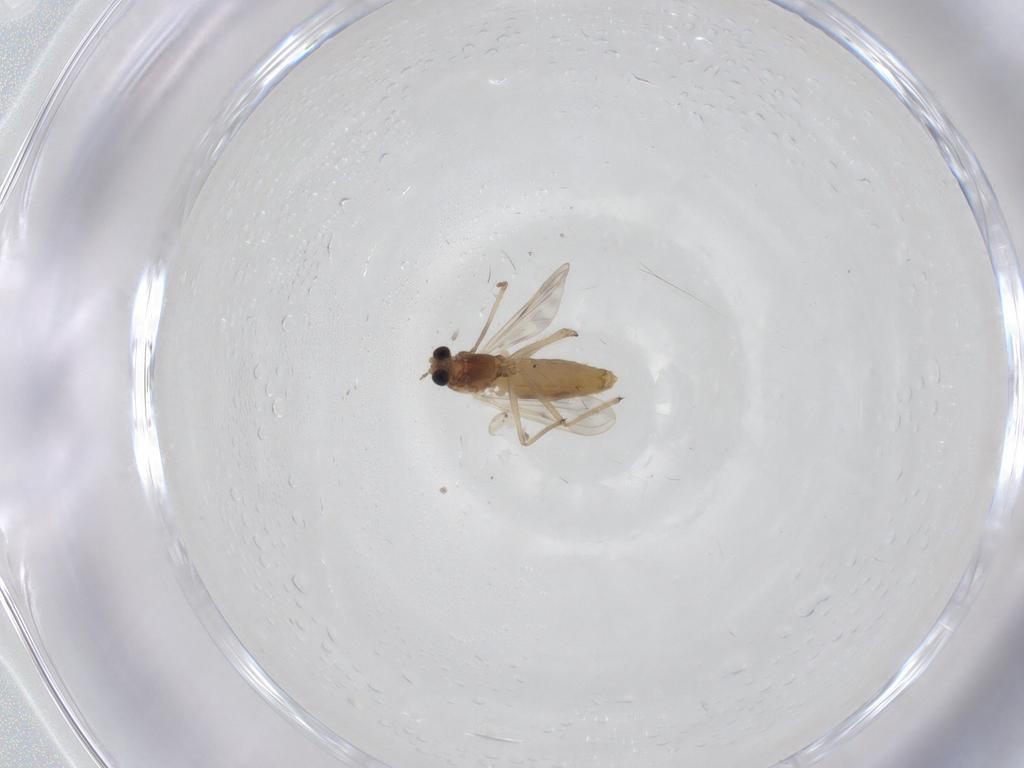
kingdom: Animalia
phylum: Arthropoda
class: Insecta
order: Diptera
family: Chironomidae
